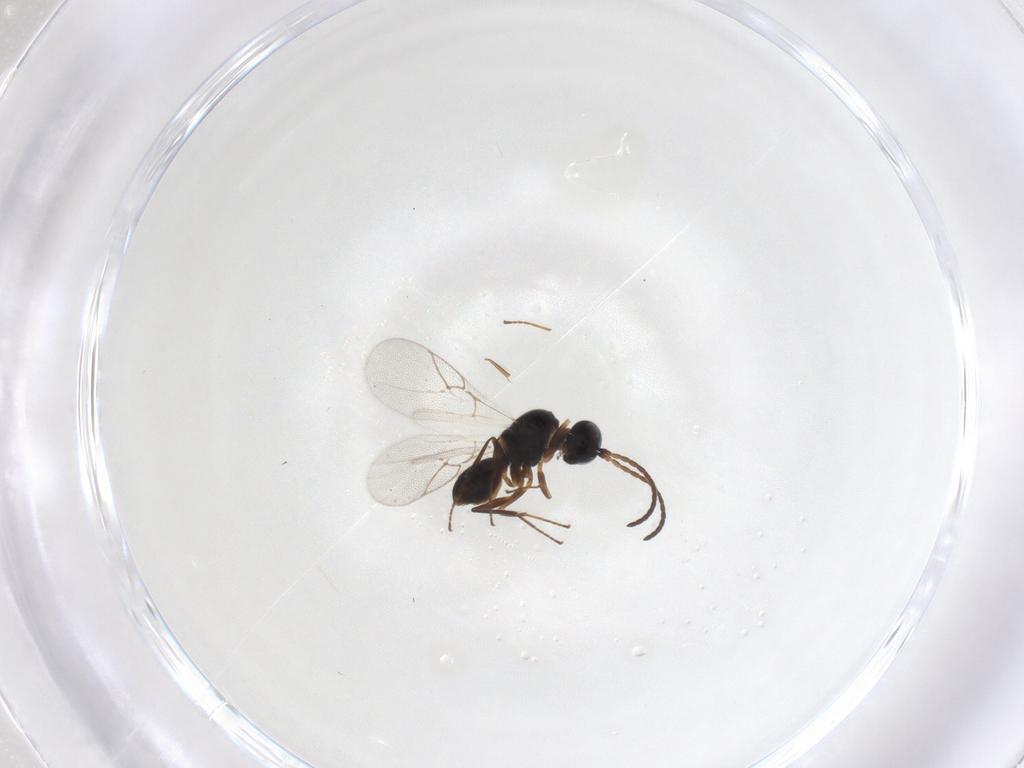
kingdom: Animalia
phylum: Arthropoda
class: Insecta
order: Hymenoptera
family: Cynipidae
